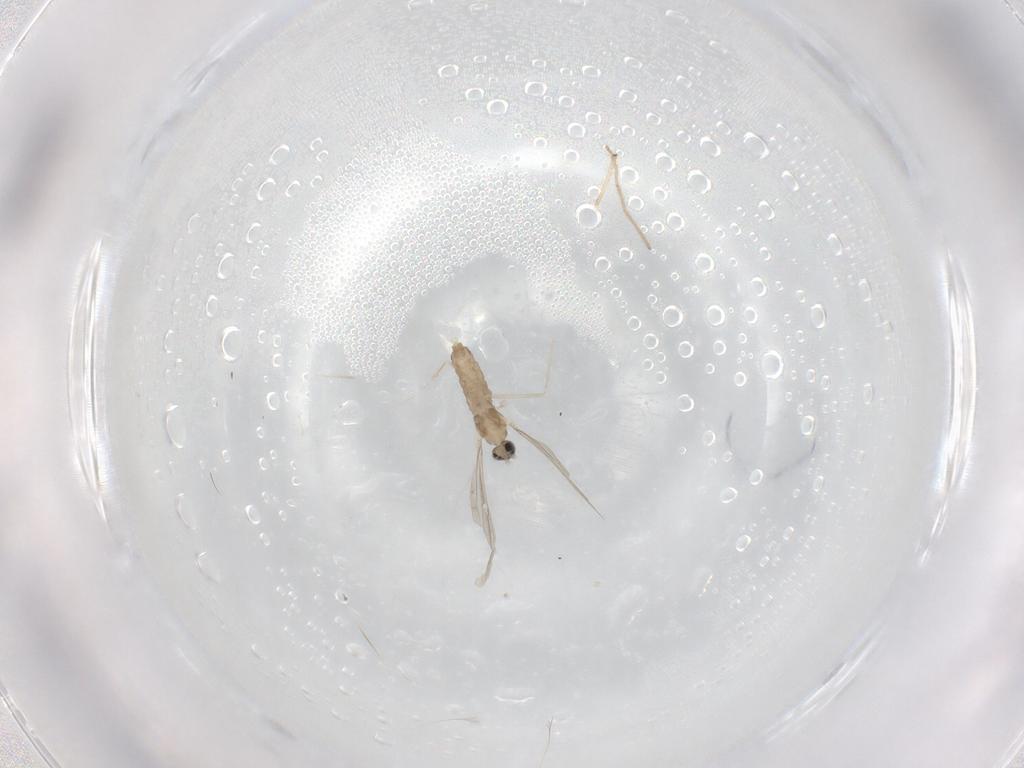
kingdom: Animalia
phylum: Arthropoda
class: Insecta
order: Diptera
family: Cecidomyiidae
